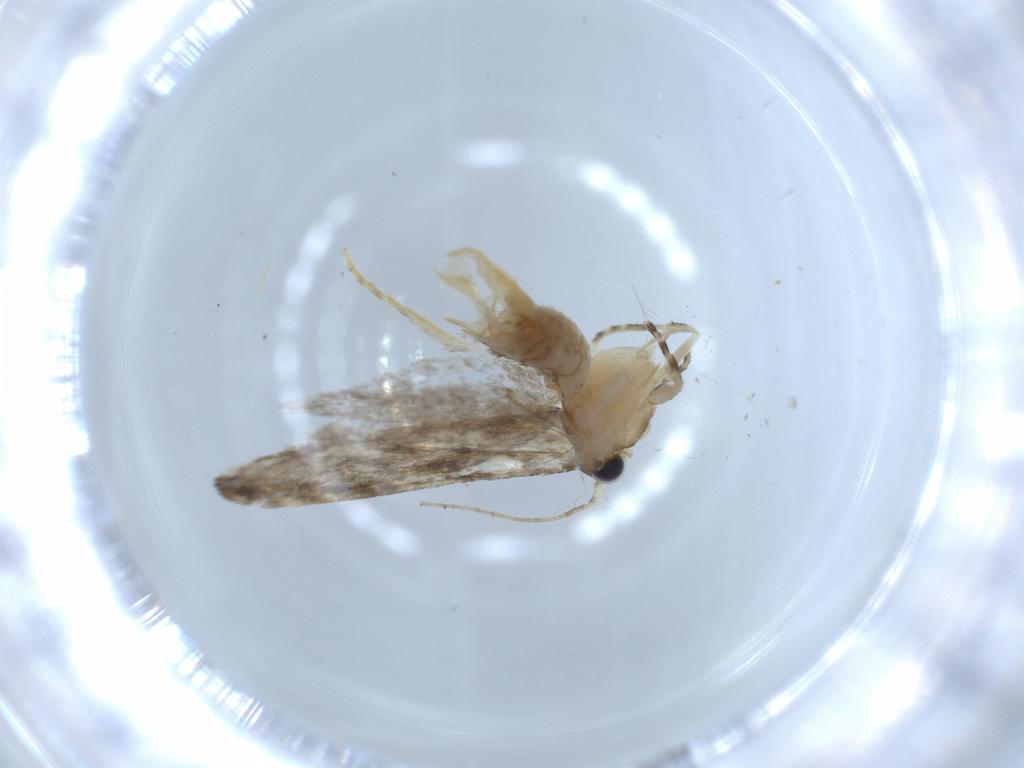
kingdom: Animalia
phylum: Arthropoda
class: Insecta
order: Lepidoptera
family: Tineidae
